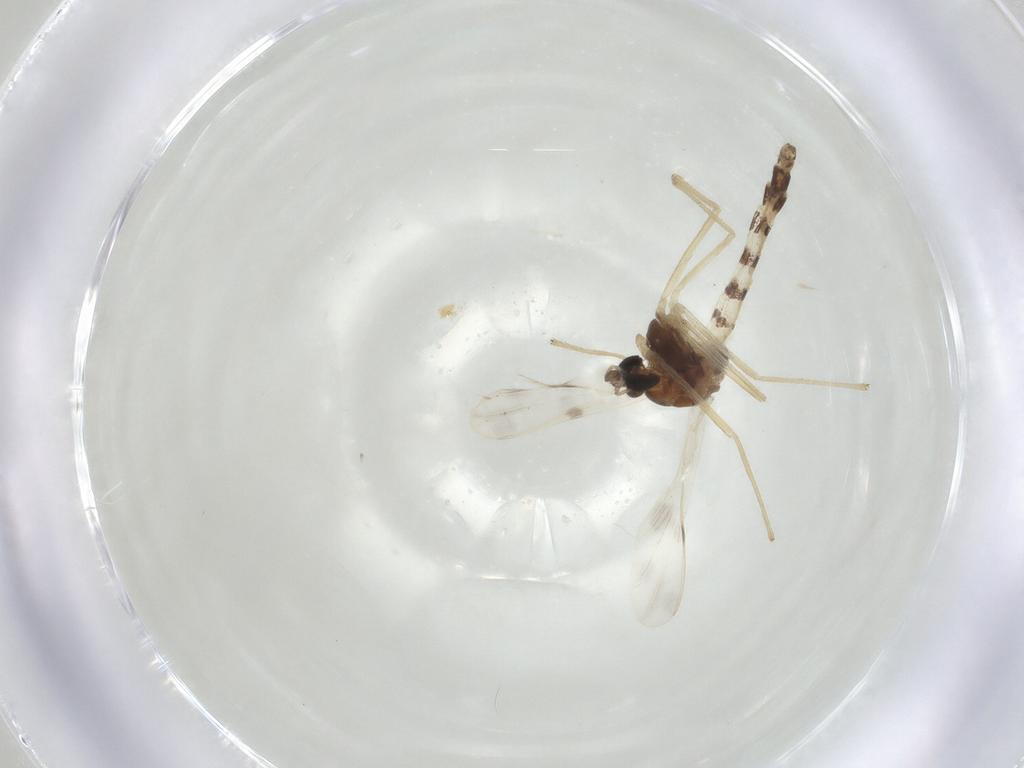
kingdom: Animalia
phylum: Arthropoda
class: Insecta
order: Diptera
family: Chironomidae
